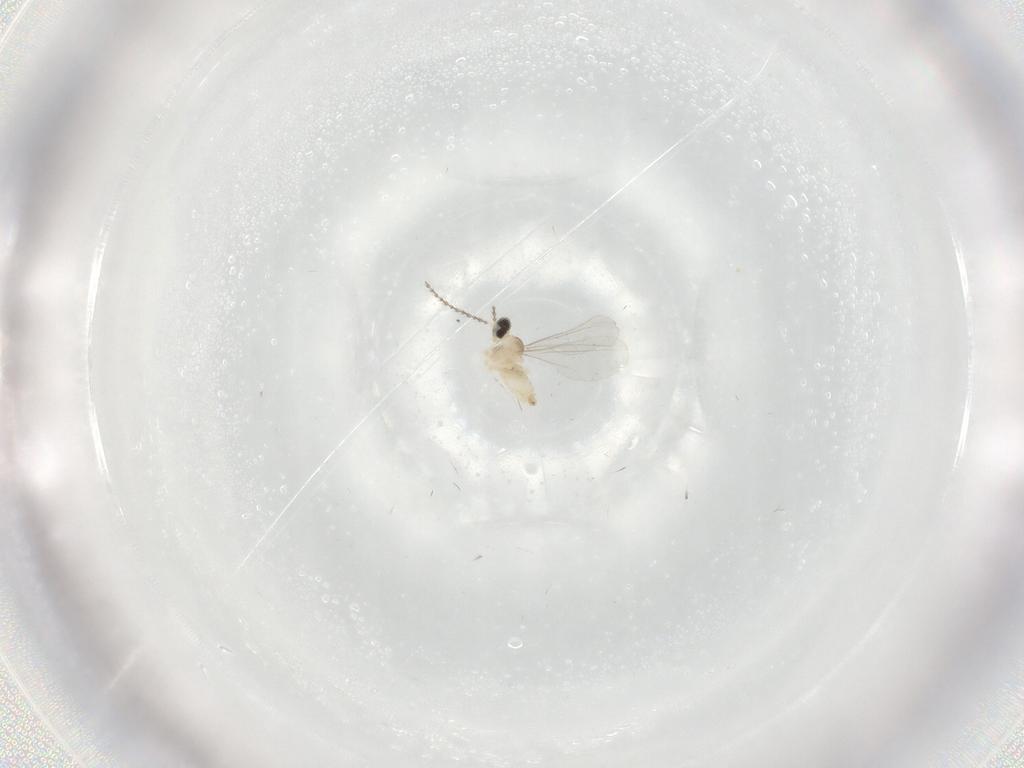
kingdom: Animalia
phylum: Arthropoda
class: Insecta
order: Diptera
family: Cecidomyiidae
